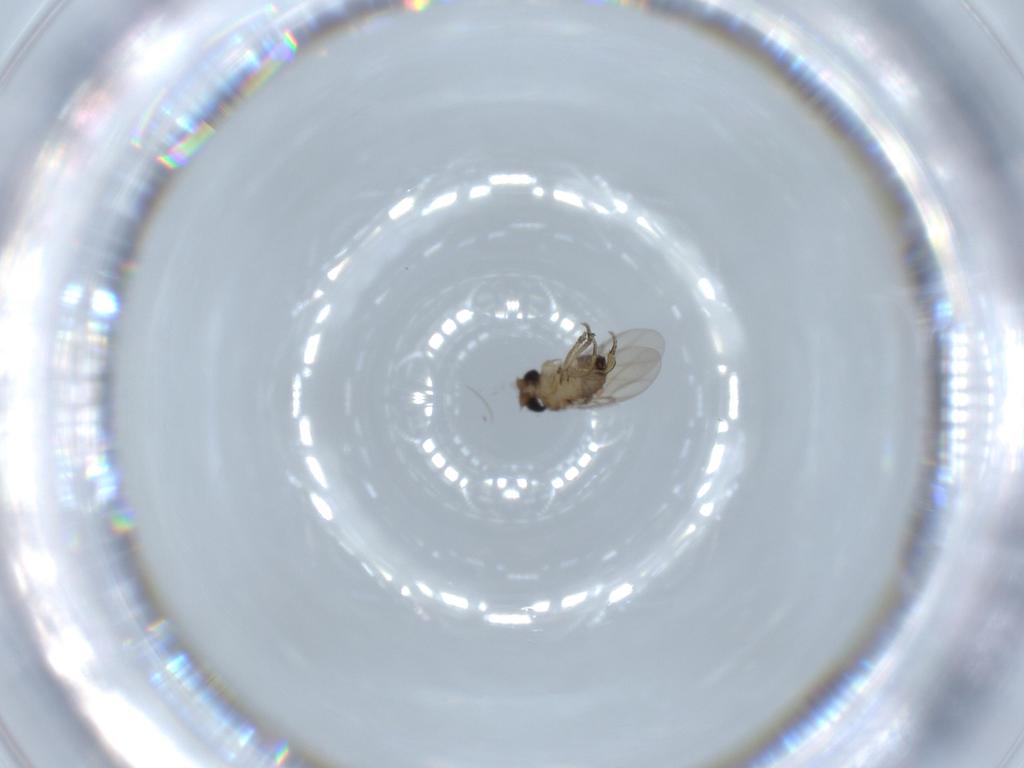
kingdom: Animalia
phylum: Arthropoda
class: Insecta
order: Diptera
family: Phoridae
